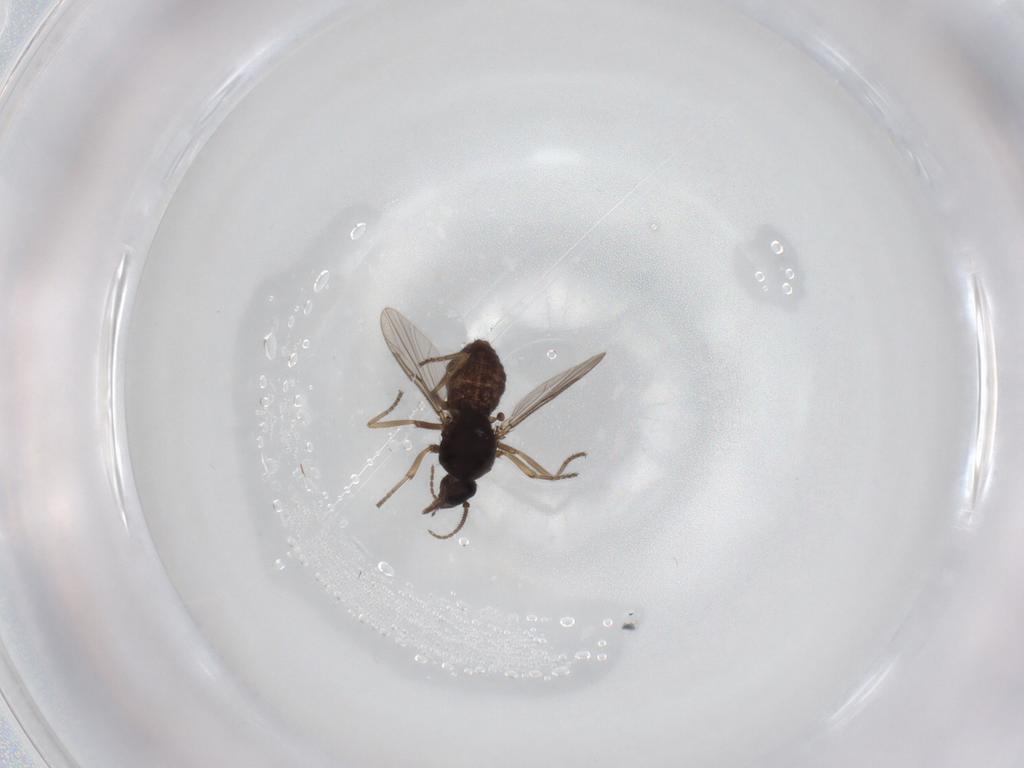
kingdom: Animalia
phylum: Arthropoda
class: Insecta
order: Diptera
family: Ceratopogonidae
